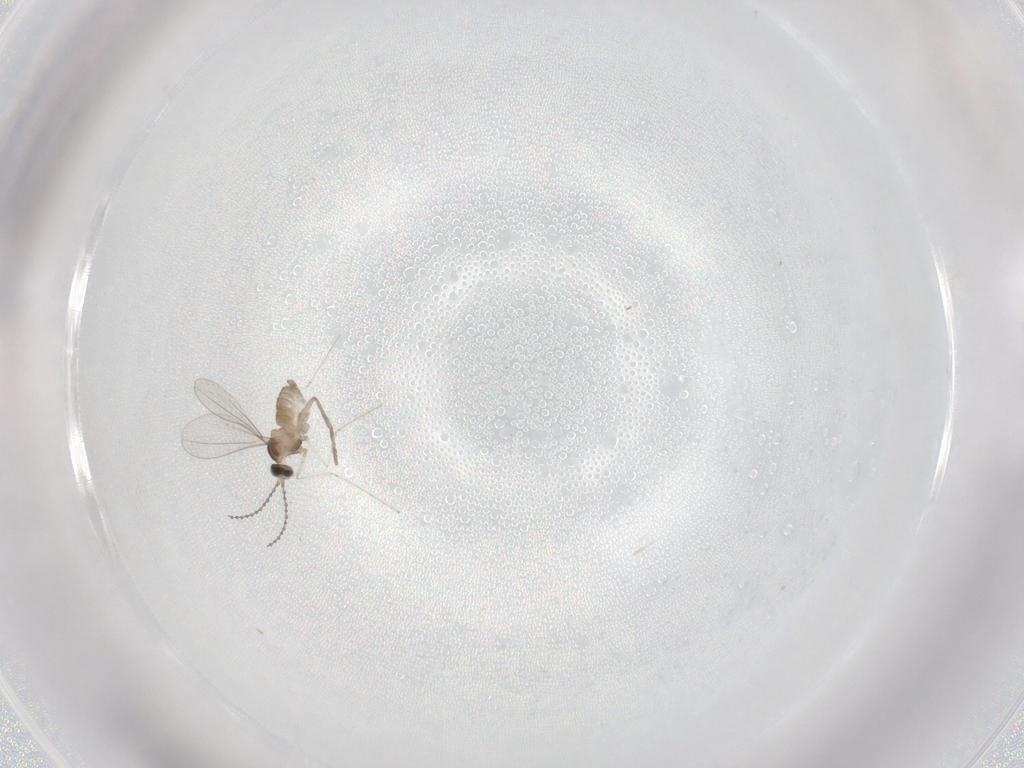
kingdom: Animalia
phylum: Arthropoda
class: Insecta
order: Diptera
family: Cecidomyiidae
